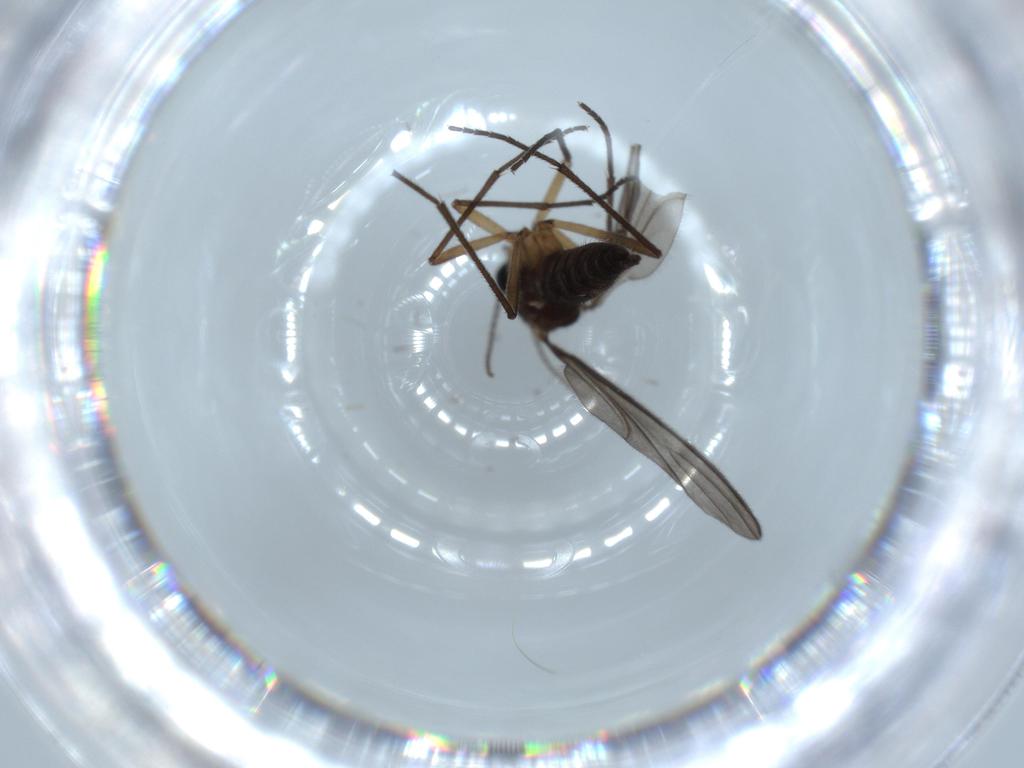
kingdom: Animalia
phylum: Arthropoda
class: Insecta
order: Diptera
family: Sciaridae
